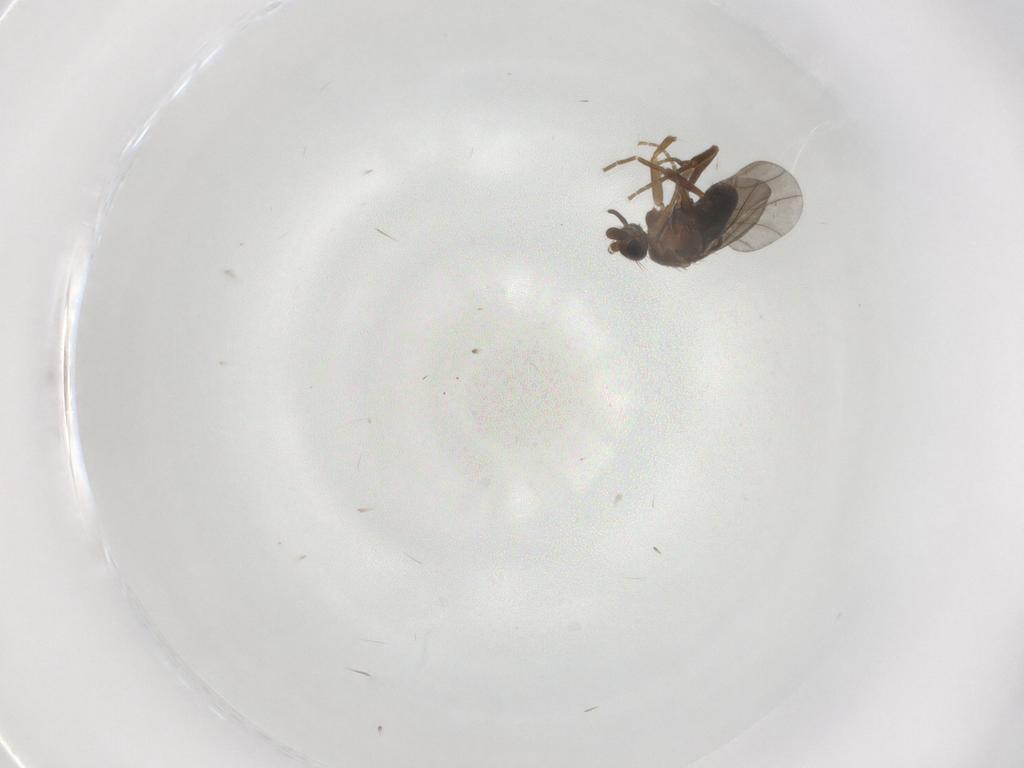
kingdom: Animalia
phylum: Arthropoda
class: Insecta
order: Diptera
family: Phoridae
